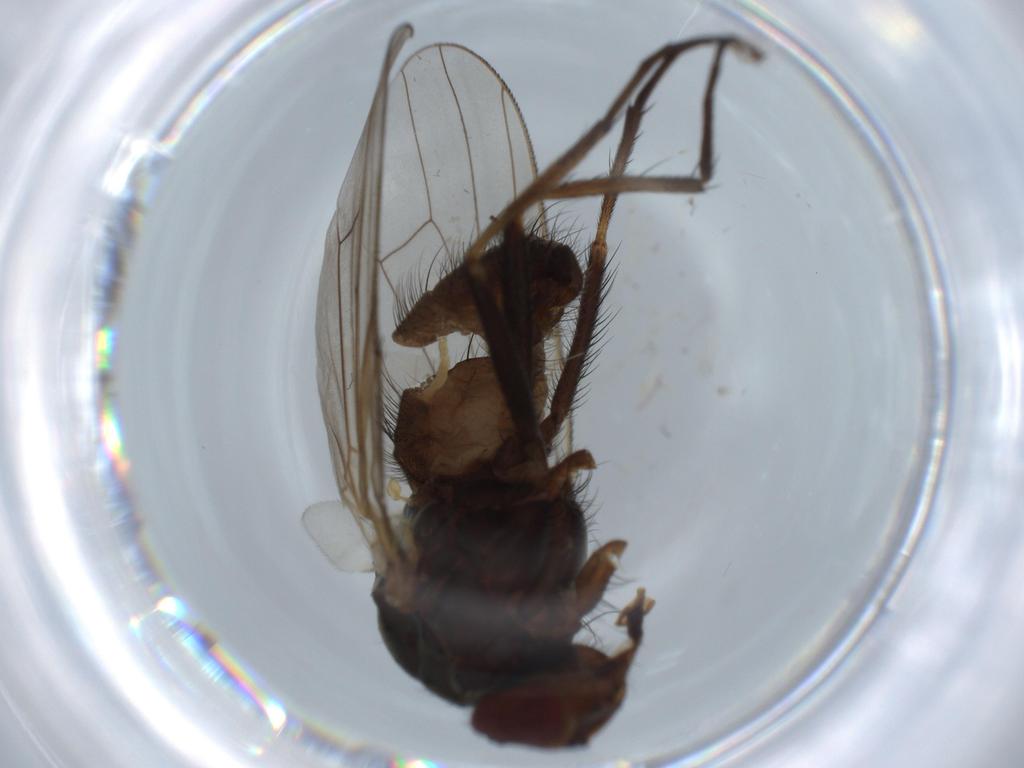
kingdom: Animalia
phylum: Arthropoda
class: Insecta
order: Diptera
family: Anthomyiidae
